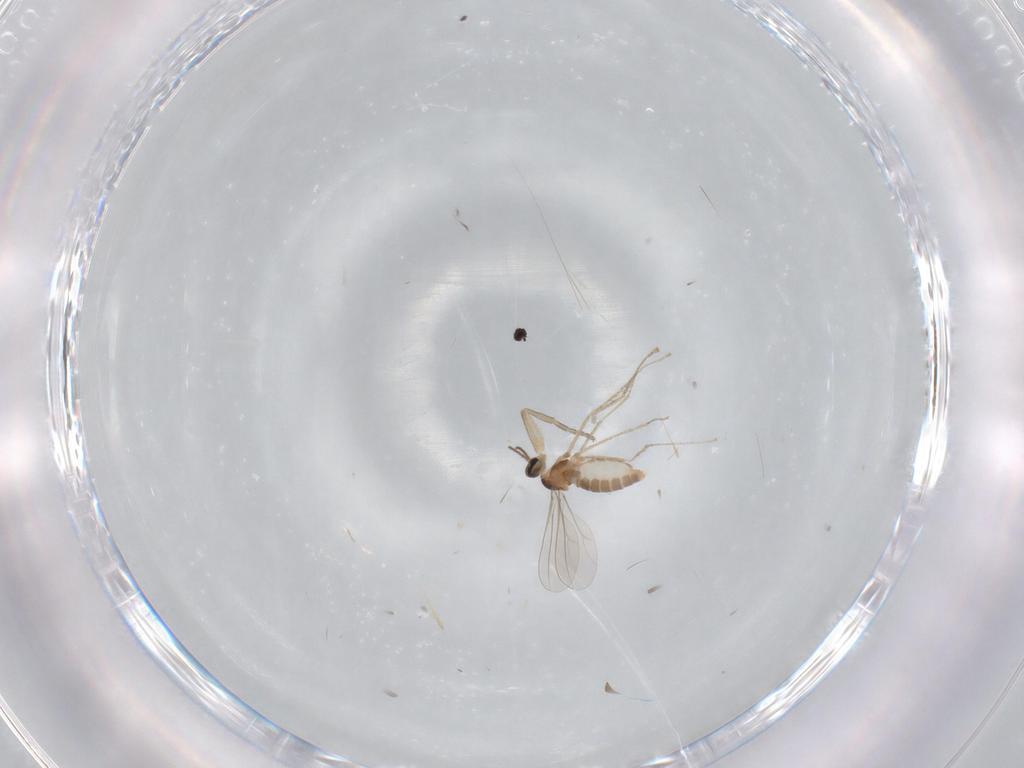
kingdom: Animalia
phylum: Arthropoda
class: Insecta
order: Diptera
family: Cecidomyiidae
